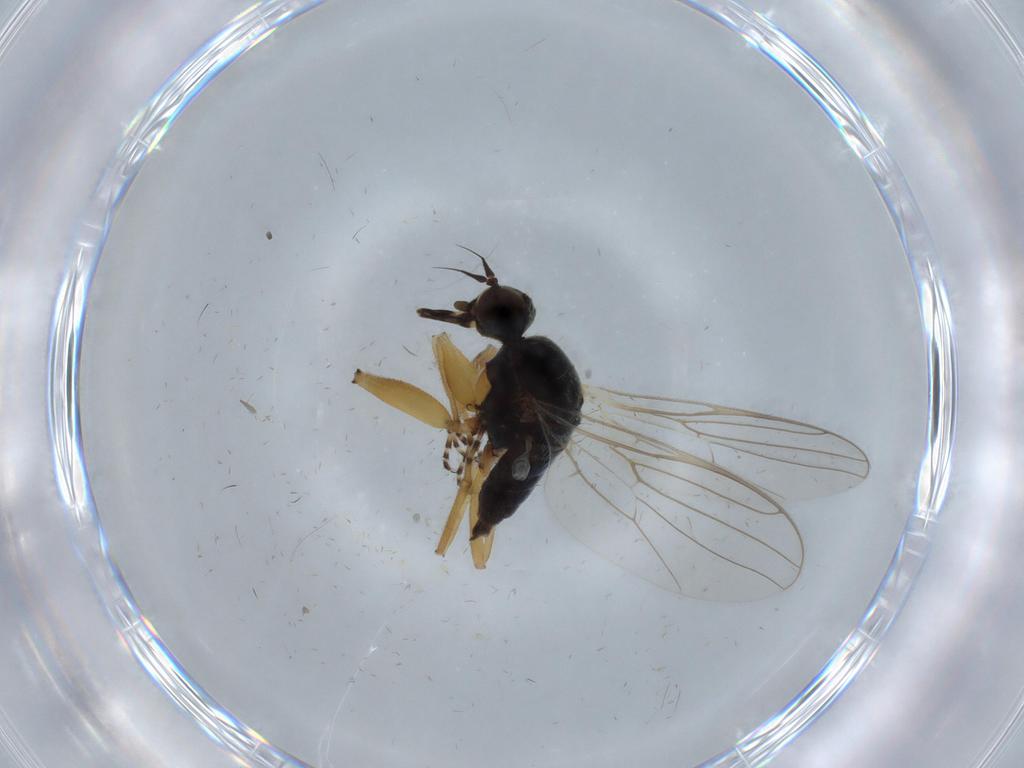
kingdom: Animalia
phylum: Arthropoda
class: Insecta
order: Diptera
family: Hybotidae
